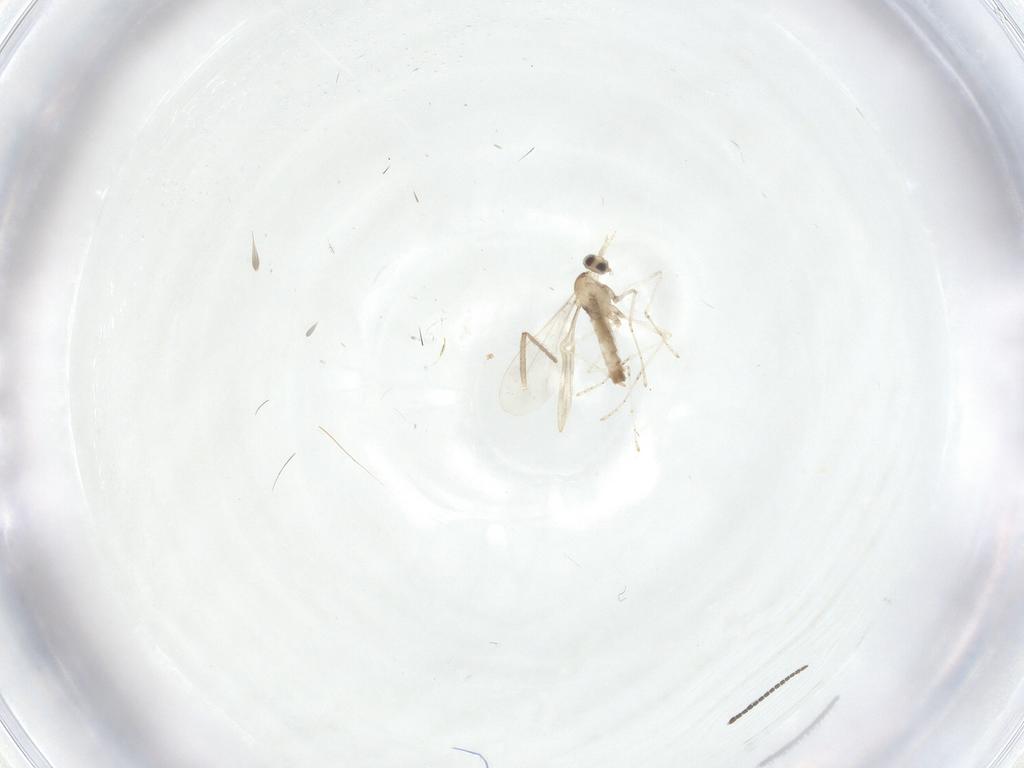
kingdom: Animalia
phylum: Arthropoda
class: Insecta
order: Diptera
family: Sciaridae
